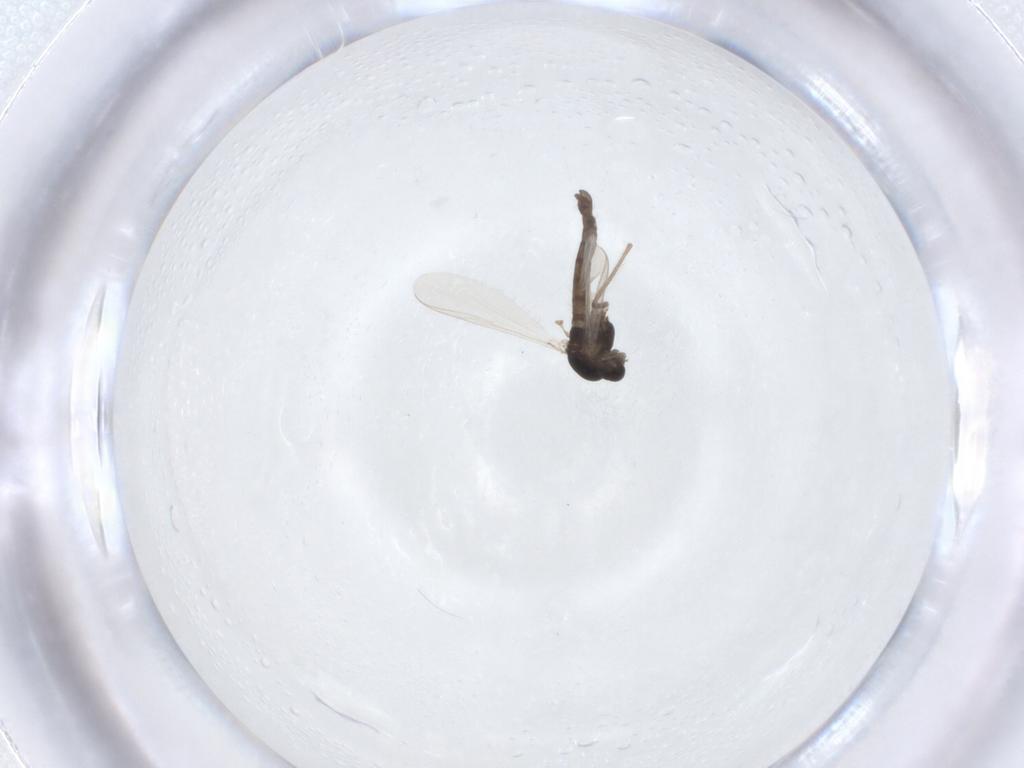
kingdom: Animalia
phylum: Arthropoda
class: Insecta
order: Diptera
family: Chironomidae
